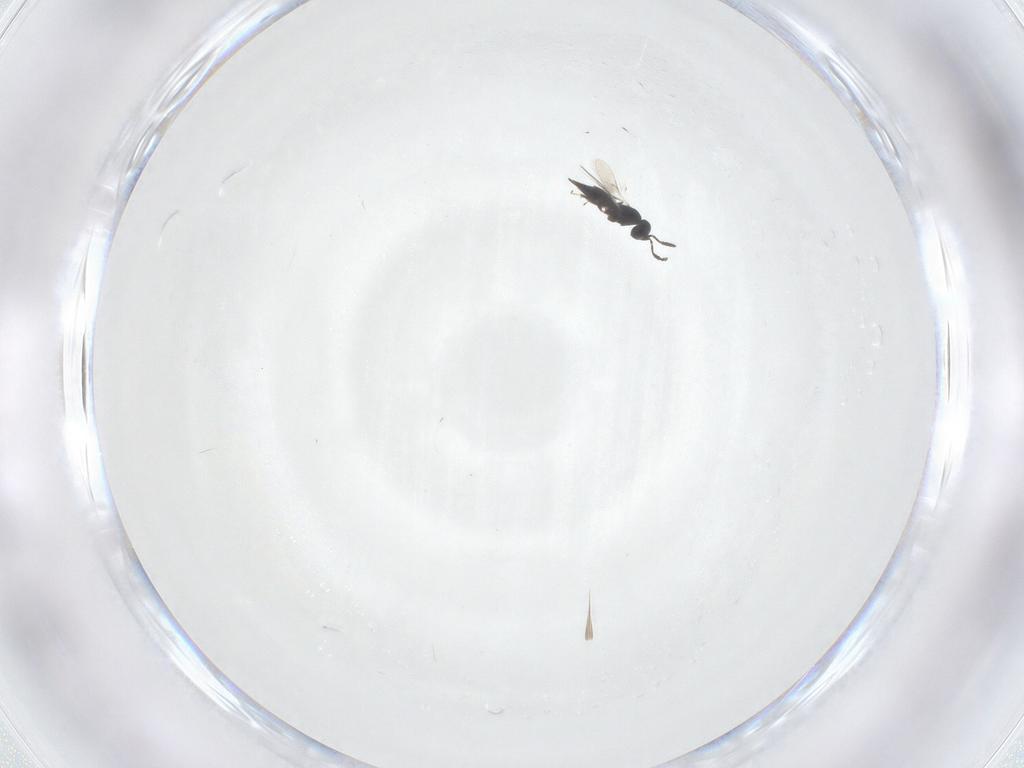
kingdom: Animalia
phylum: Arthropoda
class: Insecta
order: Hymenoptera
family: Scelionidae
